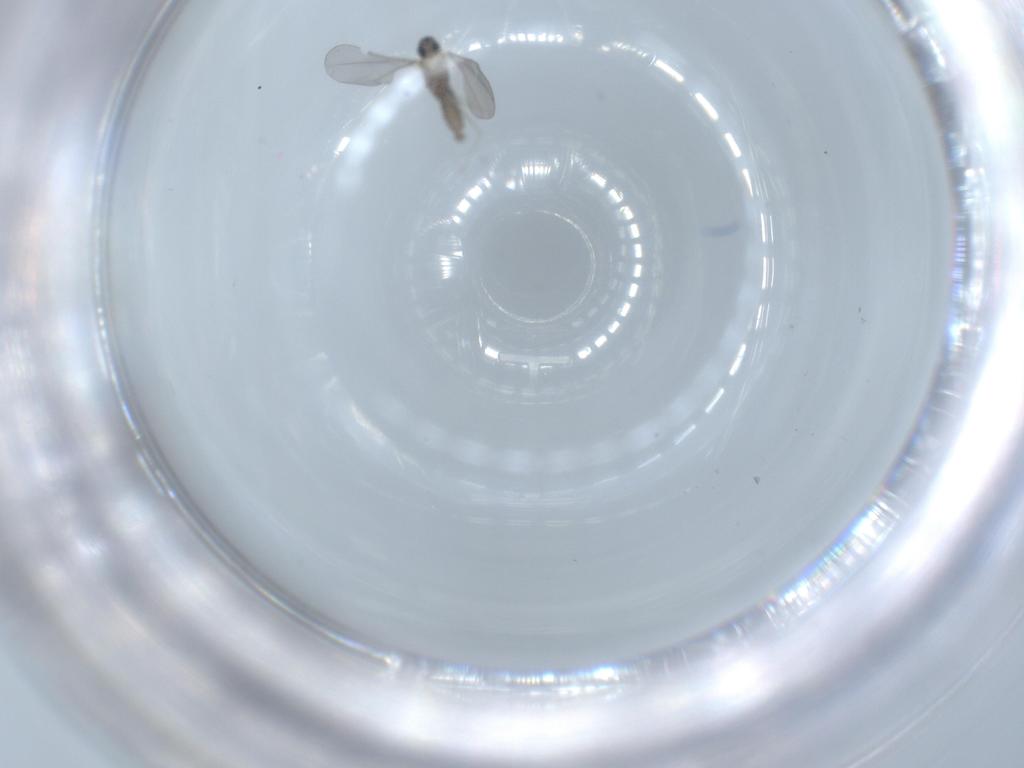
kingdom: Animalia
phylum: Arthropoda
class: Insecta
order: Diptera
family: Cecidomyiidae
